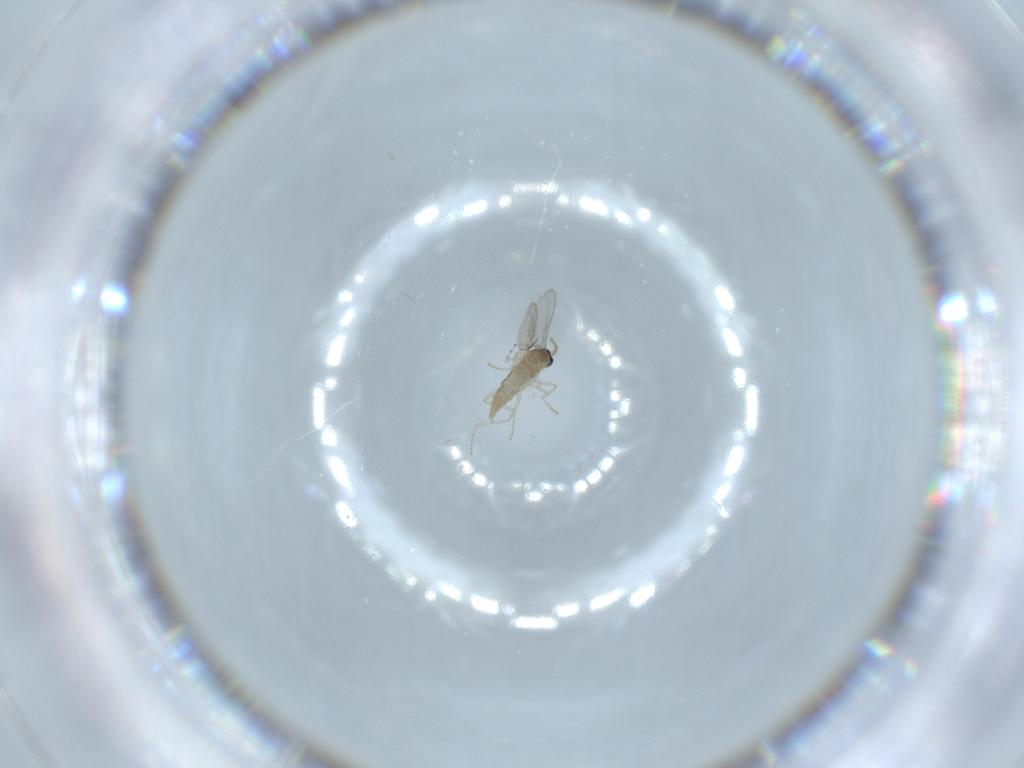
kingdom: Animalia
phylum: Arthropoda
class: Insecta
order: Diptera
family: Cecidomyiidae
